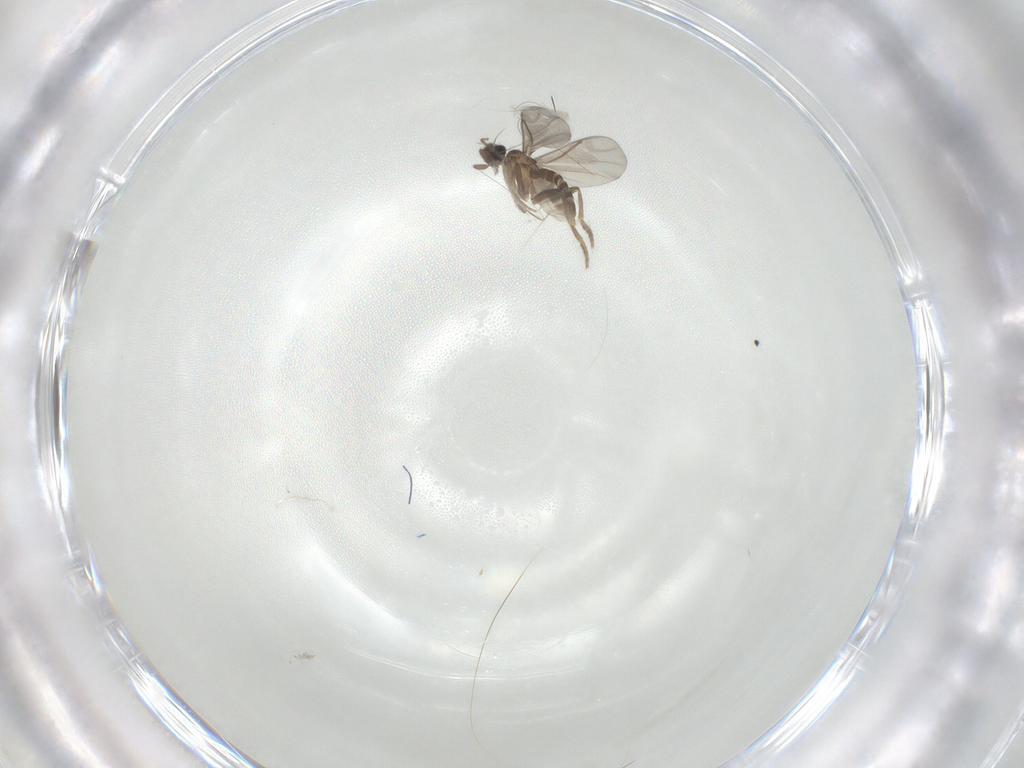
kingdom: Animalia
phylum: Arthropoda
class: Insecta
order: Diptera
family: Dolichopodidae
